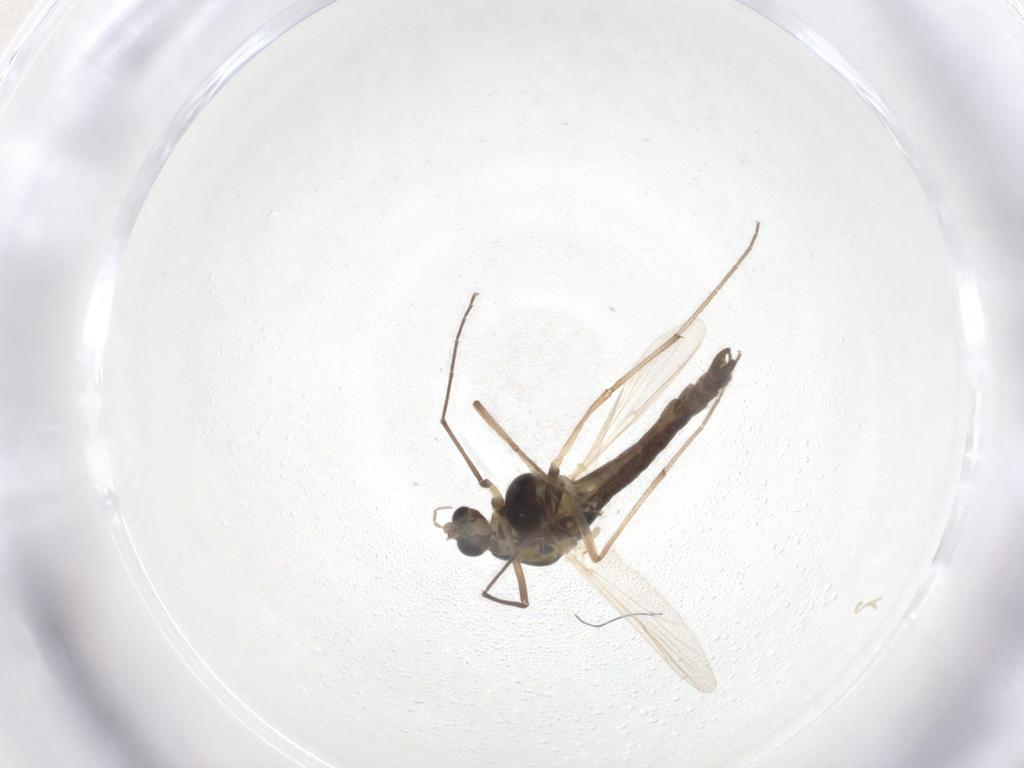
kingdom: Animalia
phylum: Arthropoda
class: Insecta
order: Diptera
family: Chironomidae
